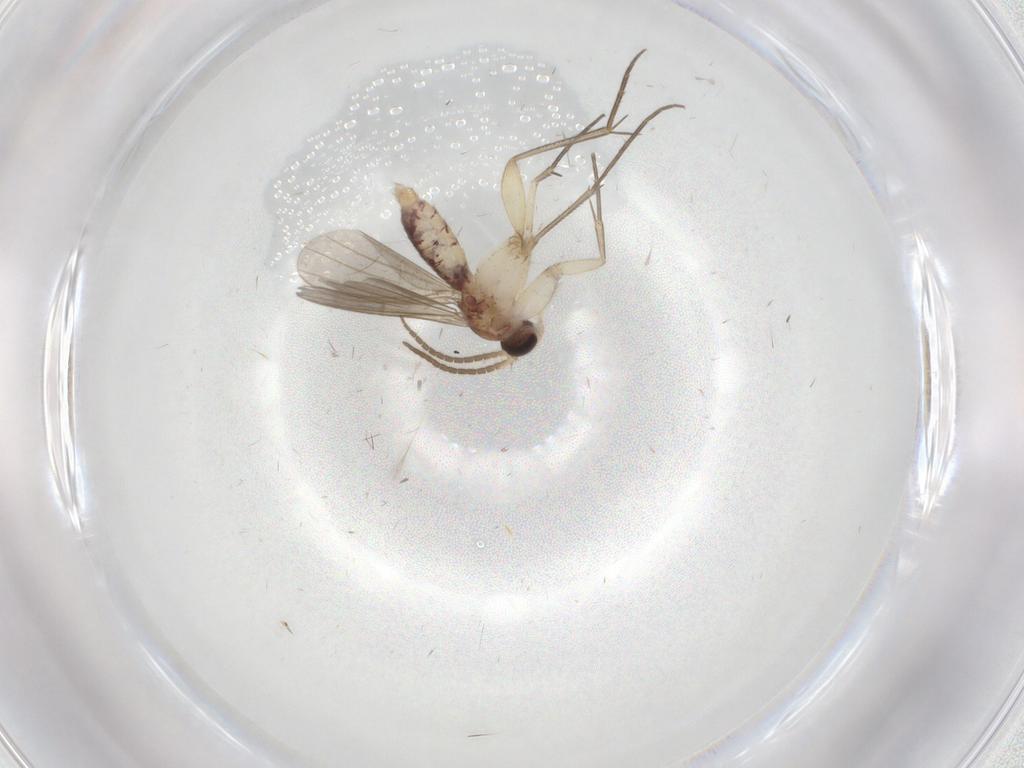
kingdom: Animalia
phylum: Arthropoda
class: Insecta
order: Diptera
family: Mycetophilidae
